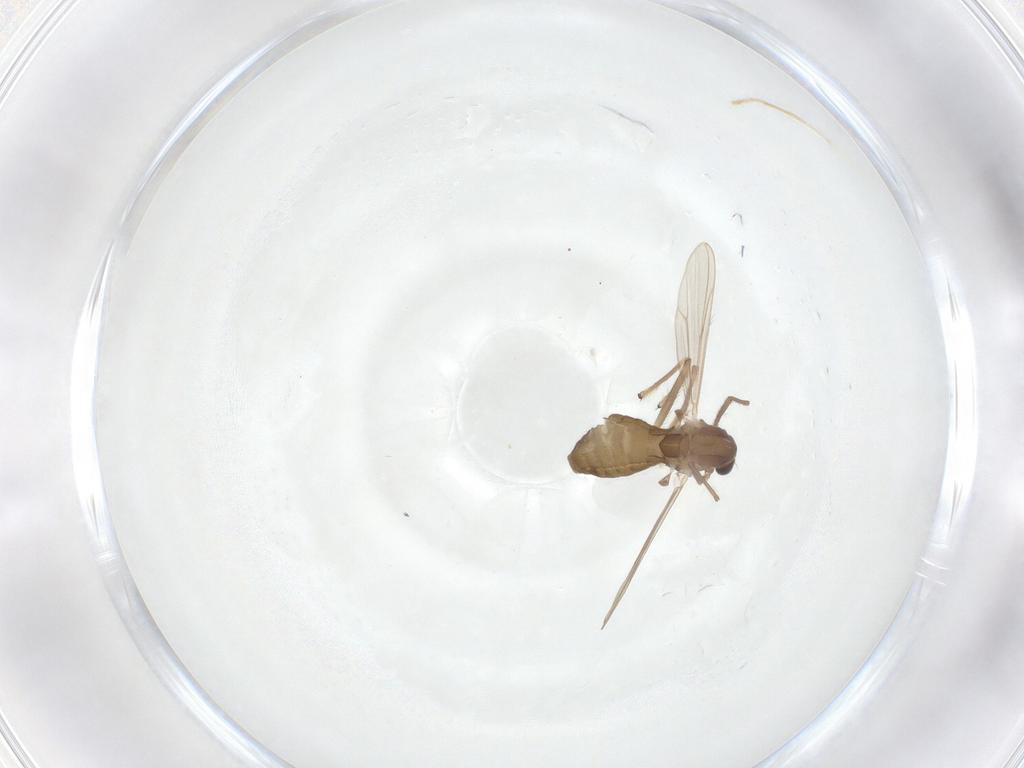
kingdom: Animalia
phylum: Arthropoda
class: Insecta
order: Diptera
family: Chironomidae
